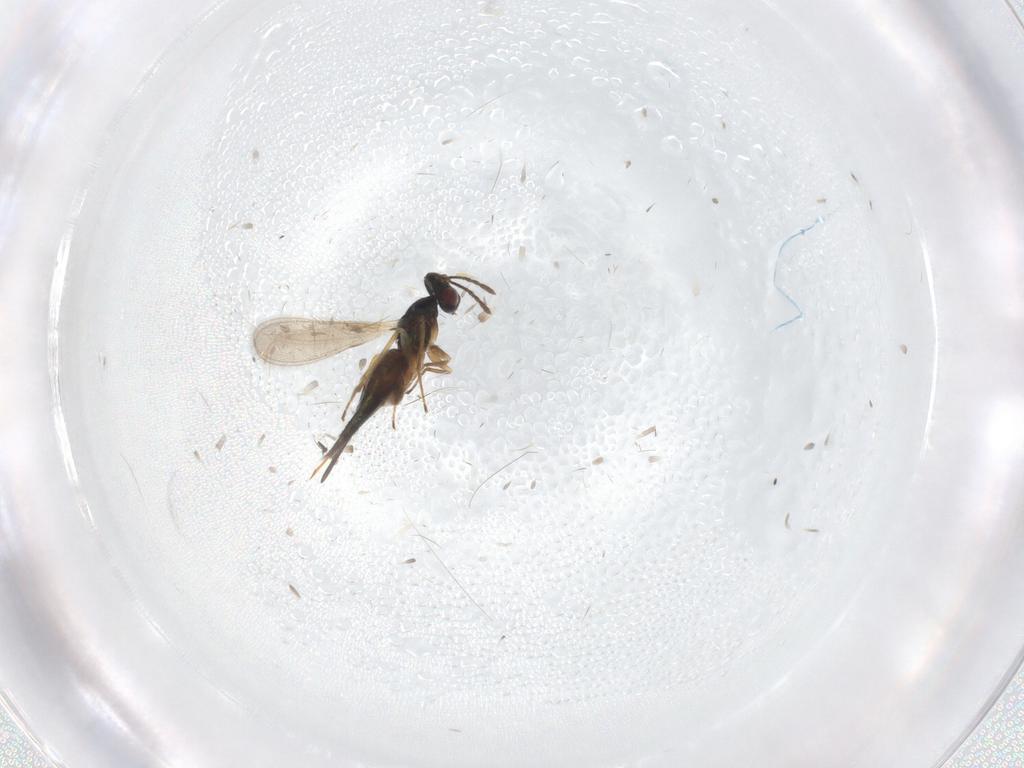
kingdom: Animalia
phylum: Arthropoda
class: Insecta
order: Hymenoptera
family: Eulophidae
